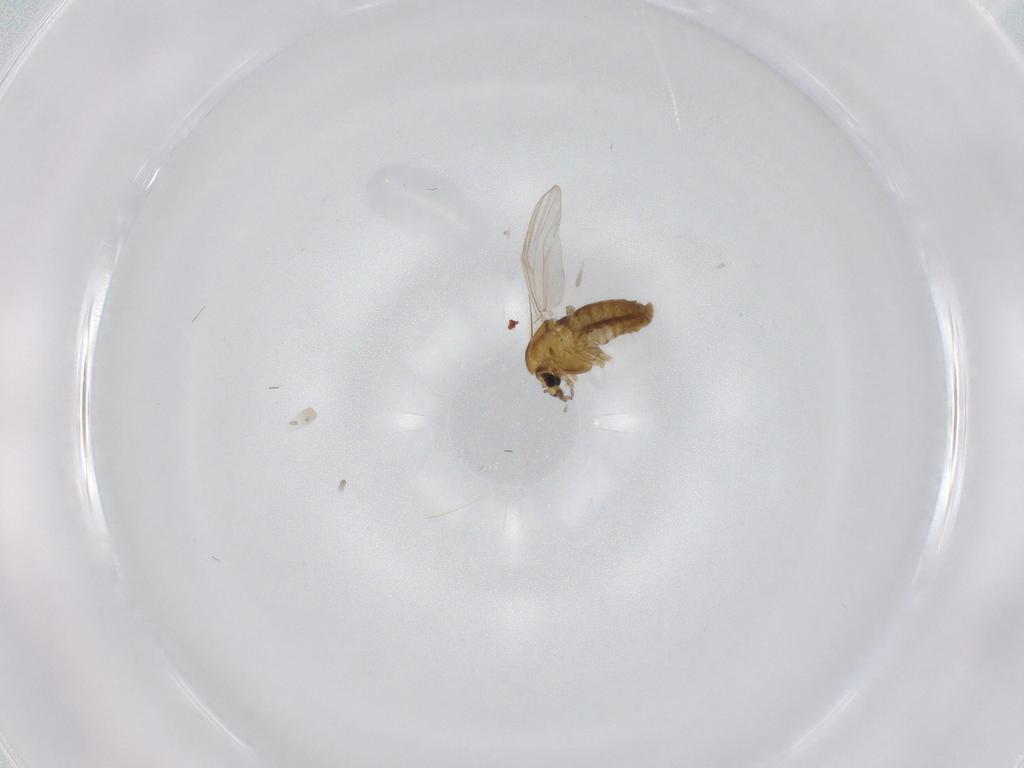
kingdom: Animalia
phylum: Arthropoda
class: Insecta
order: Diptera
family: Chironomidae
